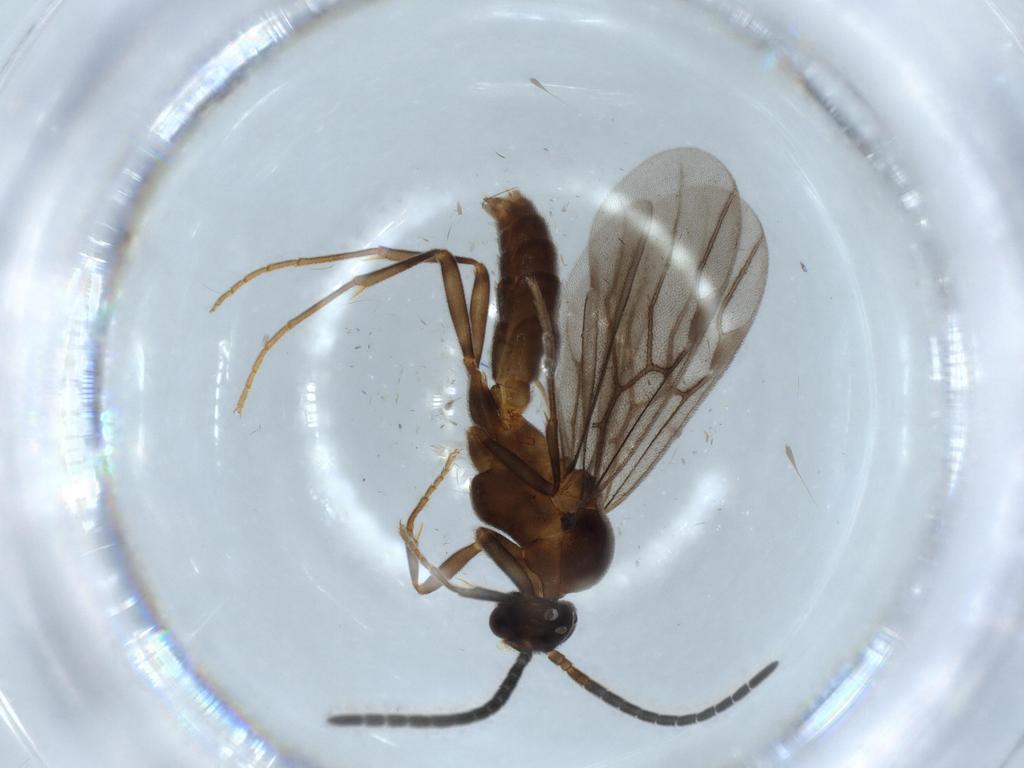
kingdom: Animalia
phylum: Arthropoda
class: Insecta
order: Hymenoptera
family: Formicidae
